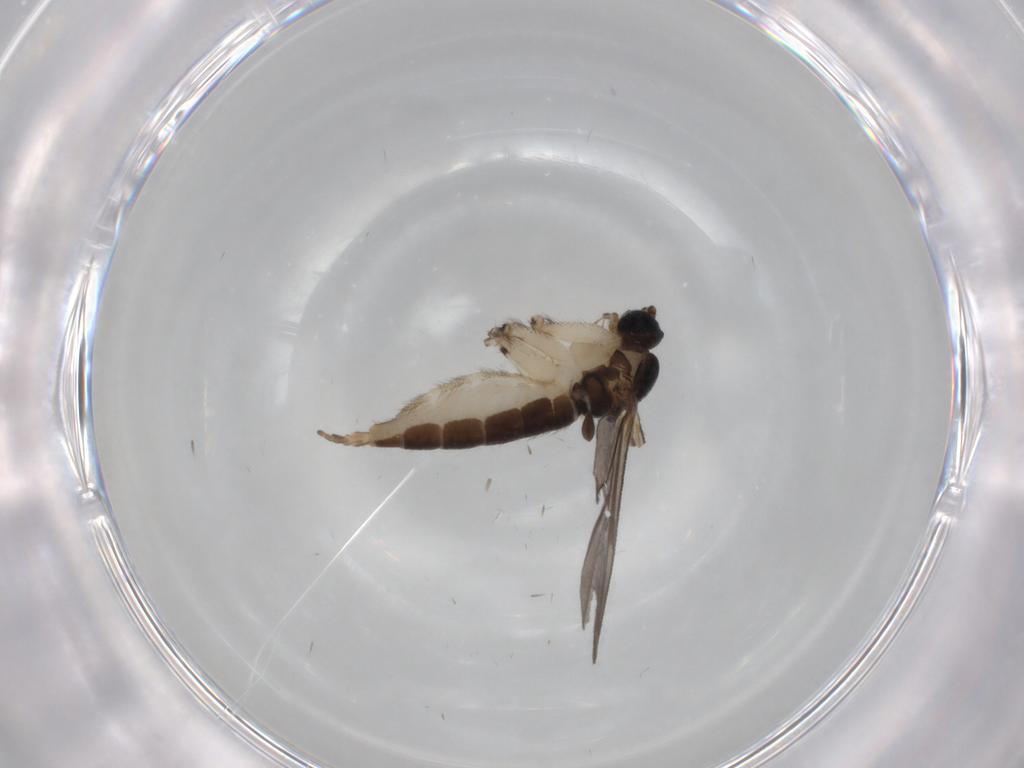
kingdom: Animalia
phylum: Arthropoda
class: Insecta
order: Diptera
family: Sciaridae
